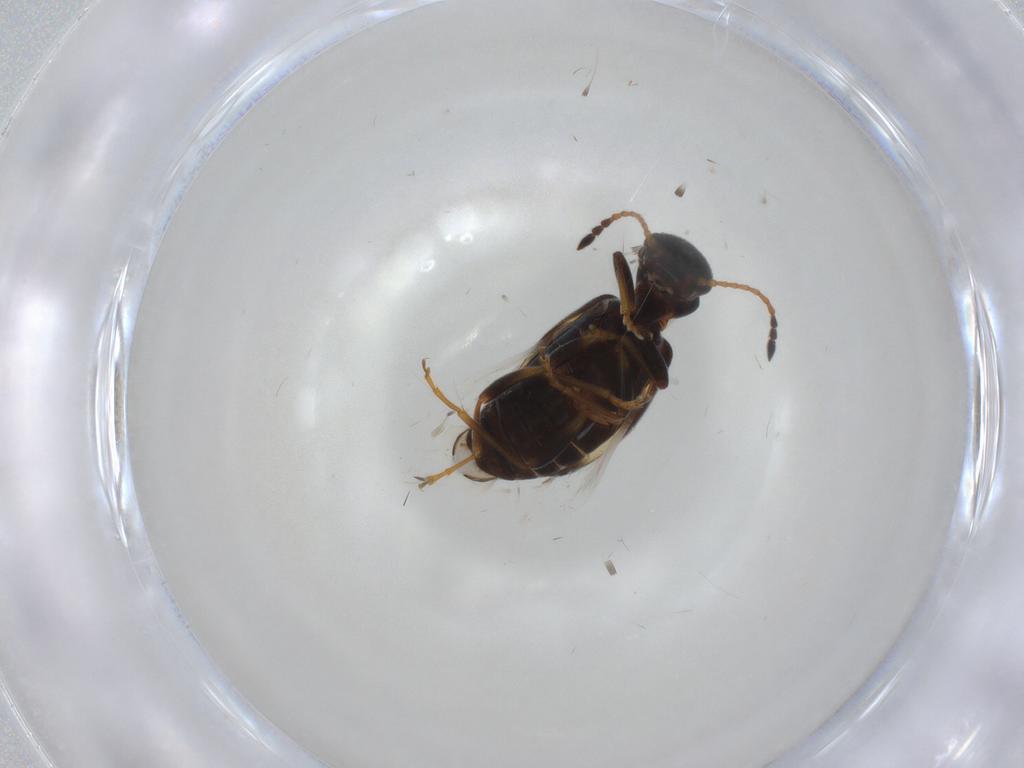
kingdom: Animalia
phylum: Arthropoda
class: Insecta
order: Coleoptera
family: Anthicidae
